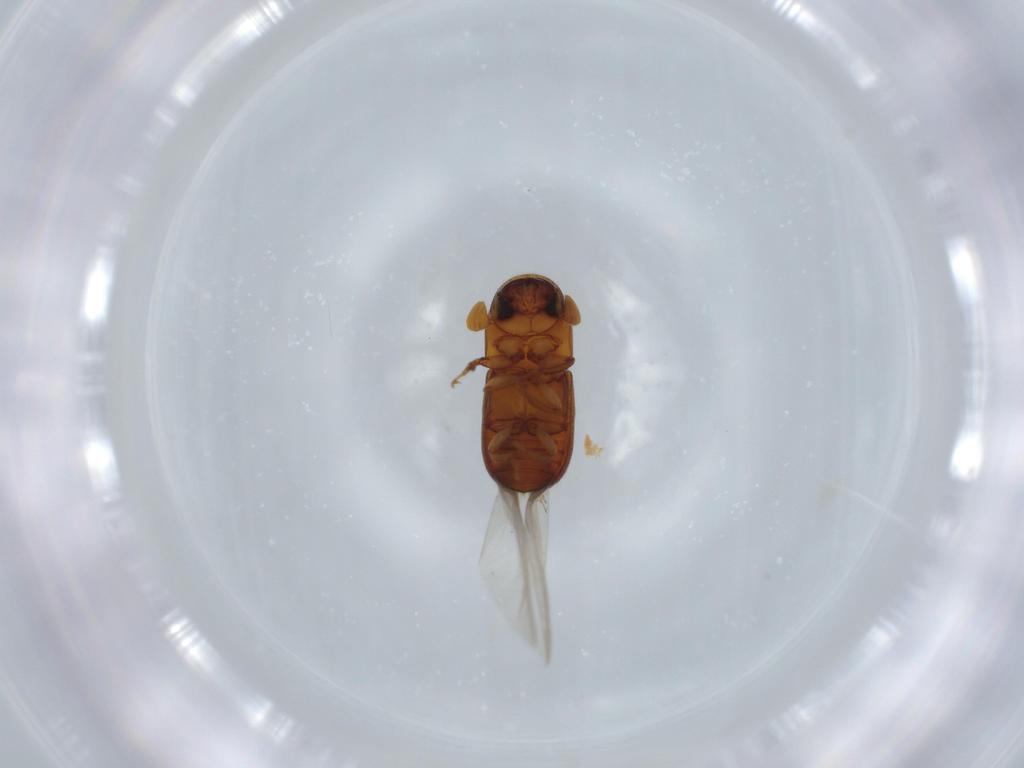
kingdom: Animalia
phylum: Arthropoda
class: Insecta
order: Coleoptera
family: Curculionidae
